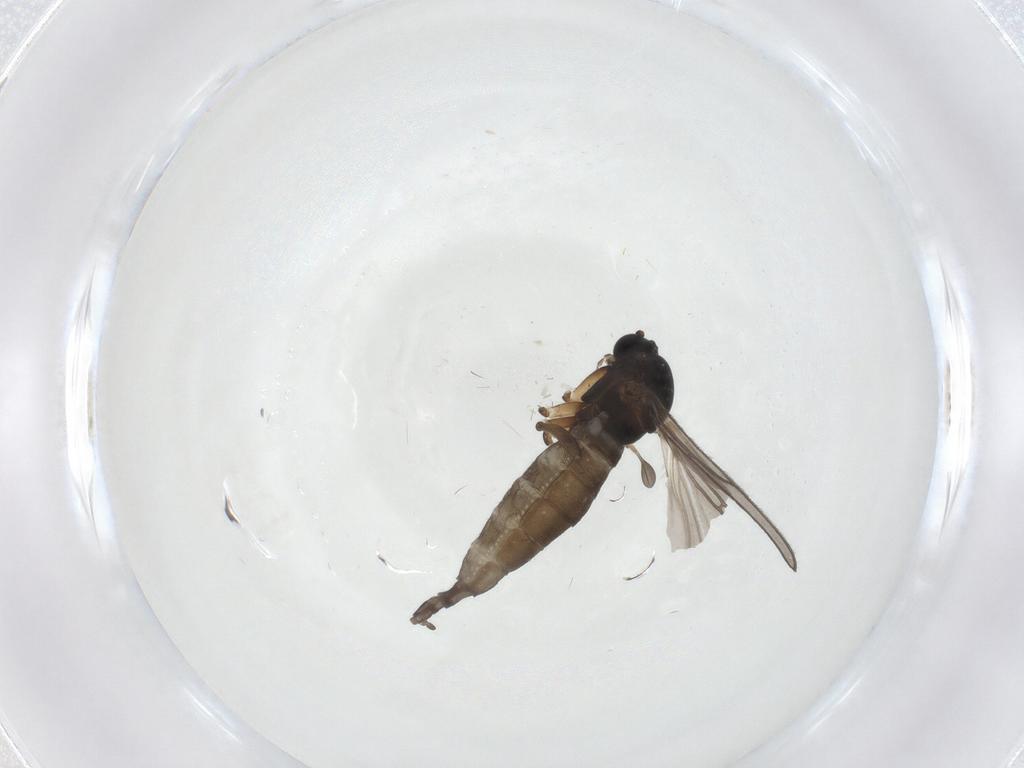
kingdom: Animalia
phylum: Arthropoda
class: Insecta
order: Diptera
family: Sciaridae
